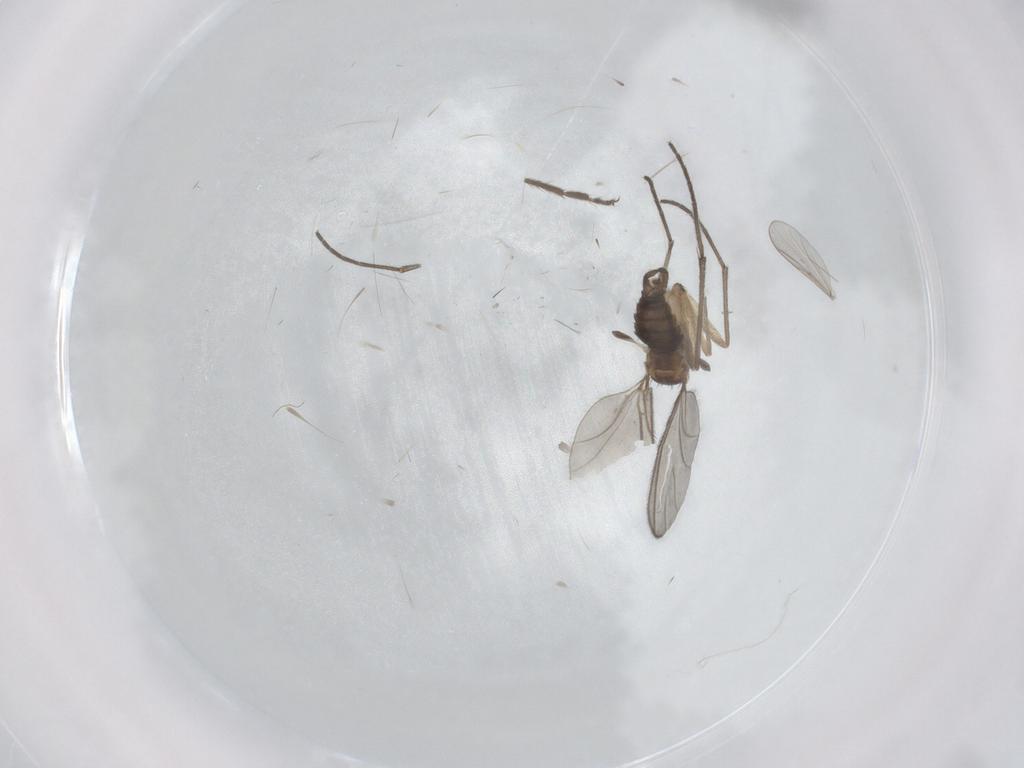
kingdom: Animalia
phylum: Arthropoda
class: Insecta
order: Diptera
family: Sciaridae
